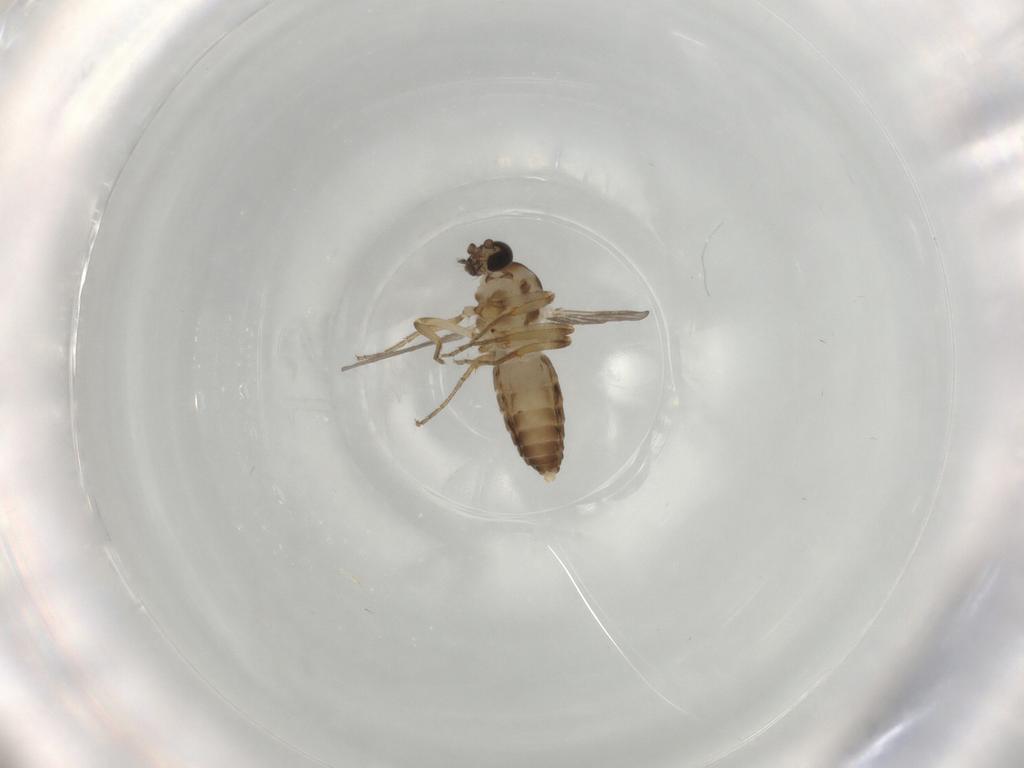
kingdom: Animalia
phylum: Arthropoda
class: Insecta
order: Diptera
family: Ceratopogonidae
